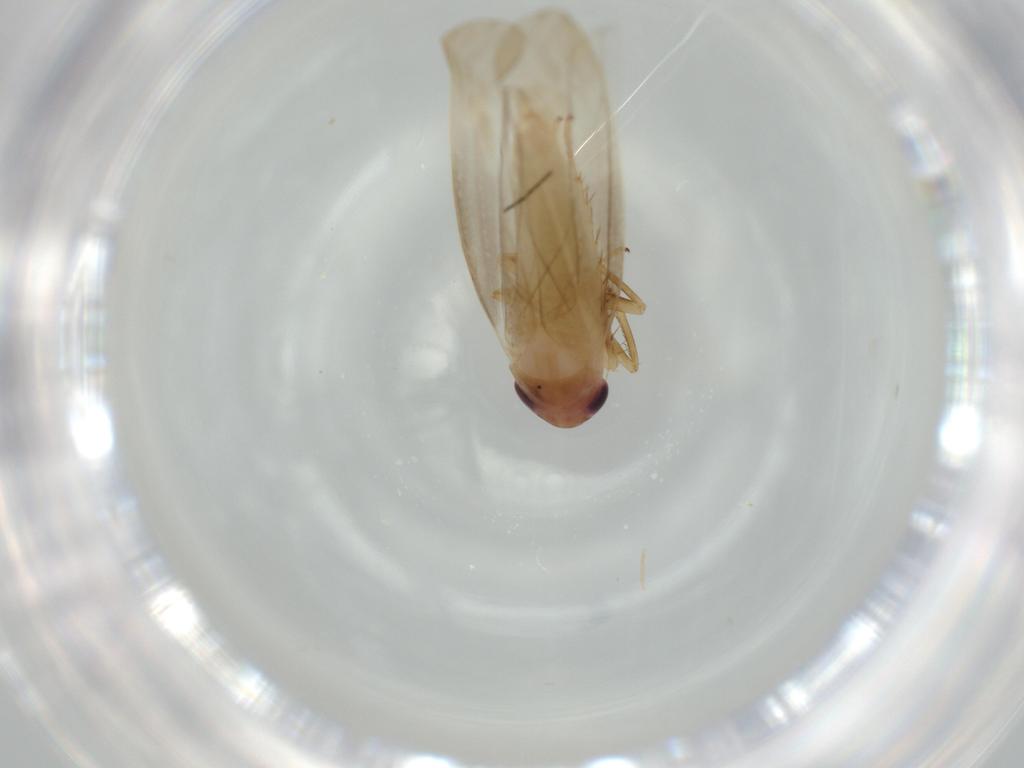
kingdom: Animalia
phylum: Arthropoda
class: Insecta
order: Hemiptera
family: Cicadellidae
